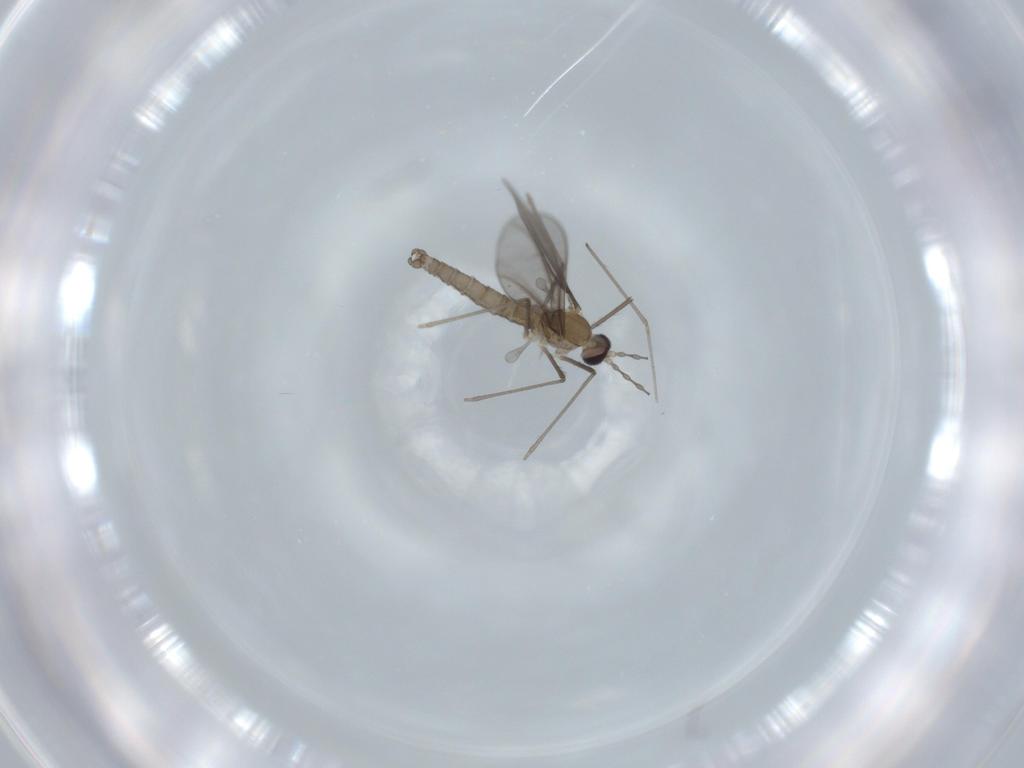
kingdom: Animalia
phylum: Arthropoda
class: Insecta
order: Diptera
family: Cecidomyiidae
